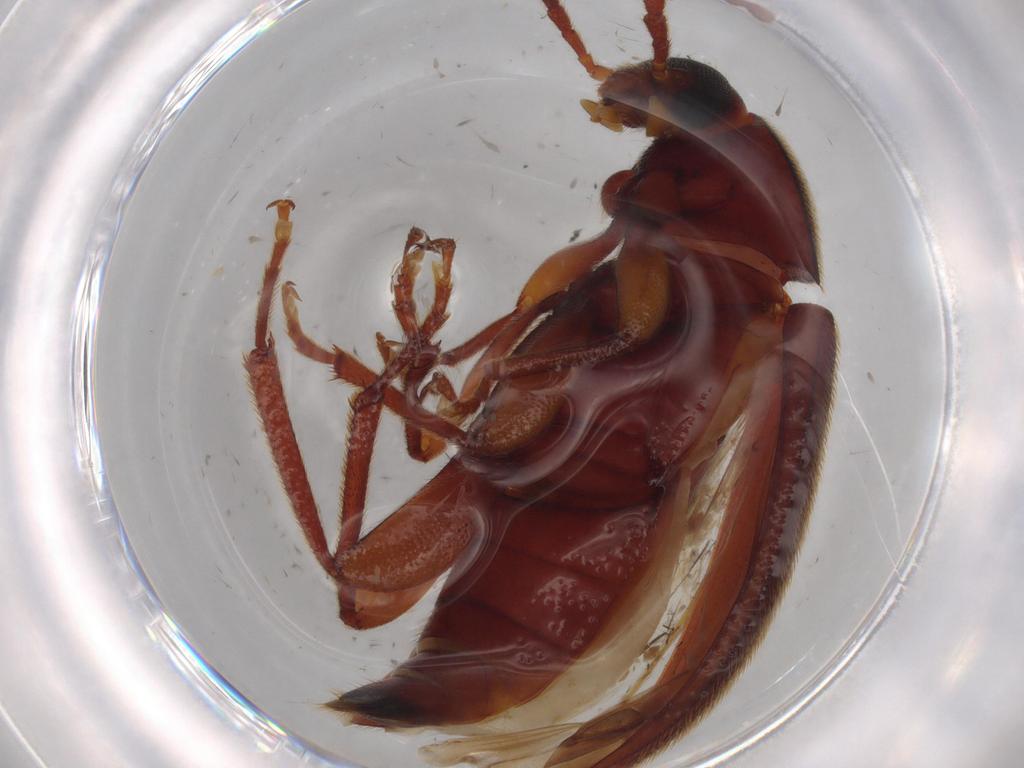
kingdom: Animalia
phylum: Arthropoda
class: Insecta
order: Coleoptera
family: Tenebrionidae
